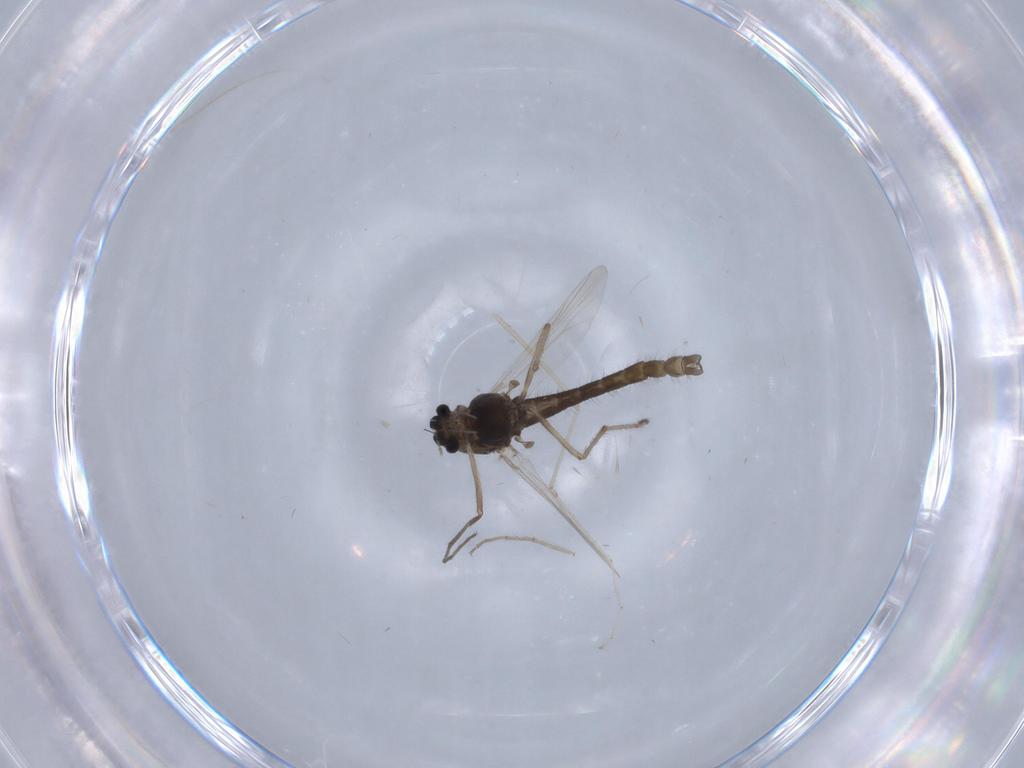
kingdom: Animalia
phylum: Arthropoda
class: Insecta
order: Diptera
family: Chironomidae
